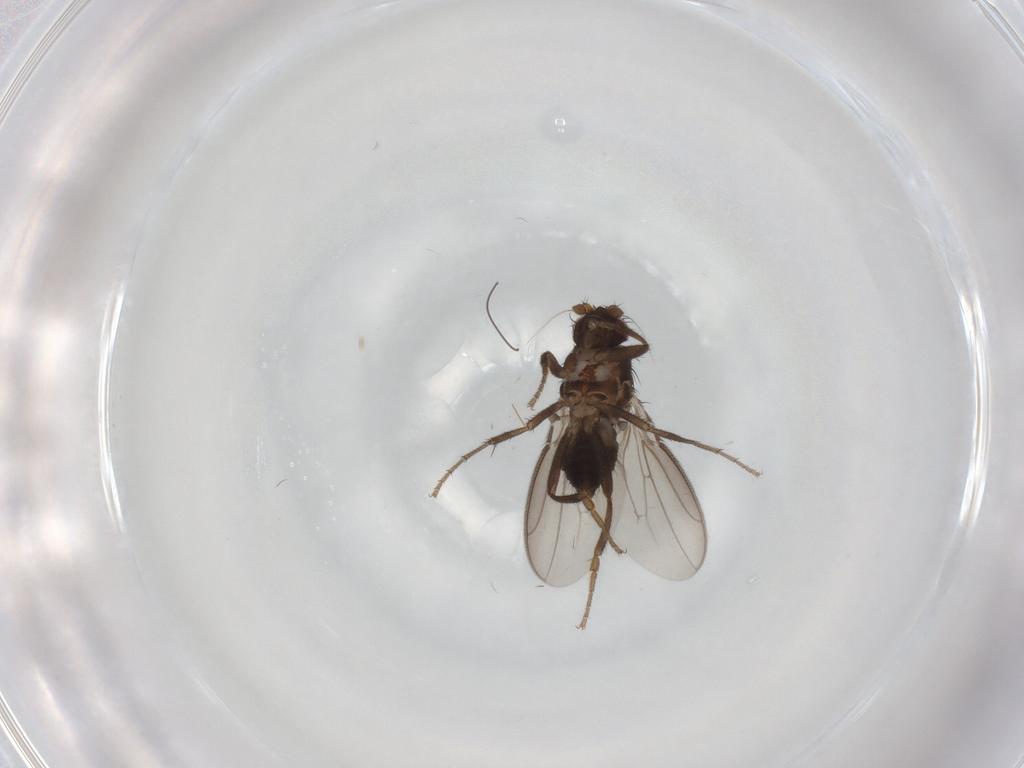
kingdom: Animalia
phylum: Arthropoda
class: Insecta
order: Diptera
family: Sphaeroceridae
